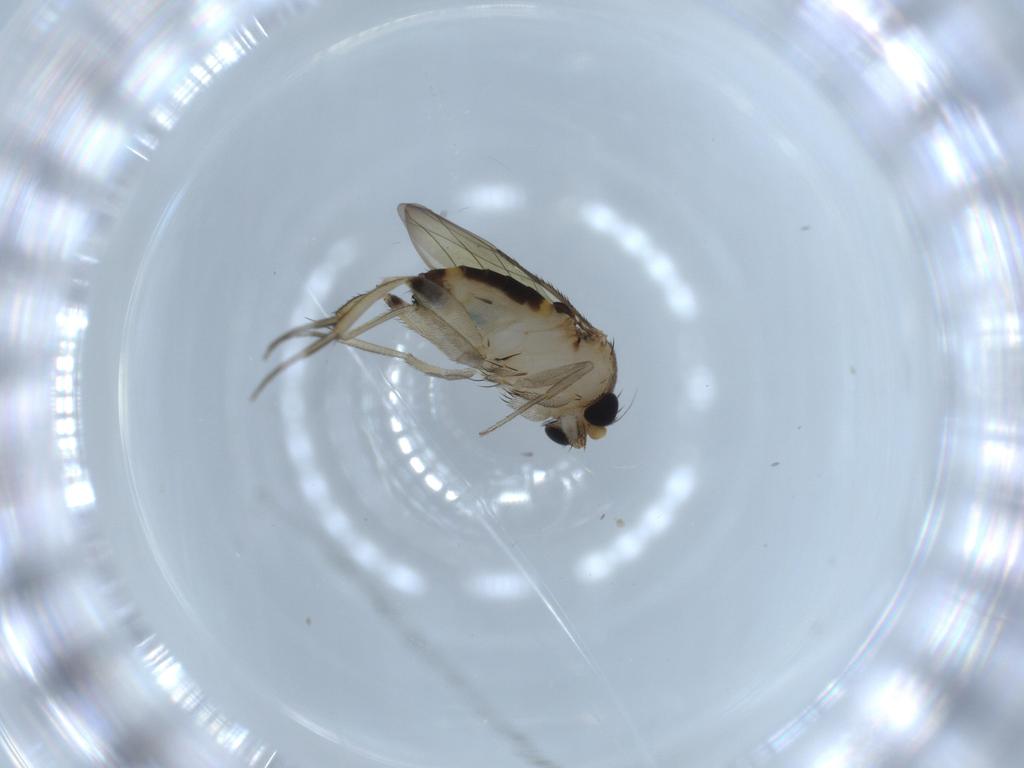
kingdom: Animalia
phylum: Arthropoda
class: Insecta
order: Diptera
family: Phoridae
